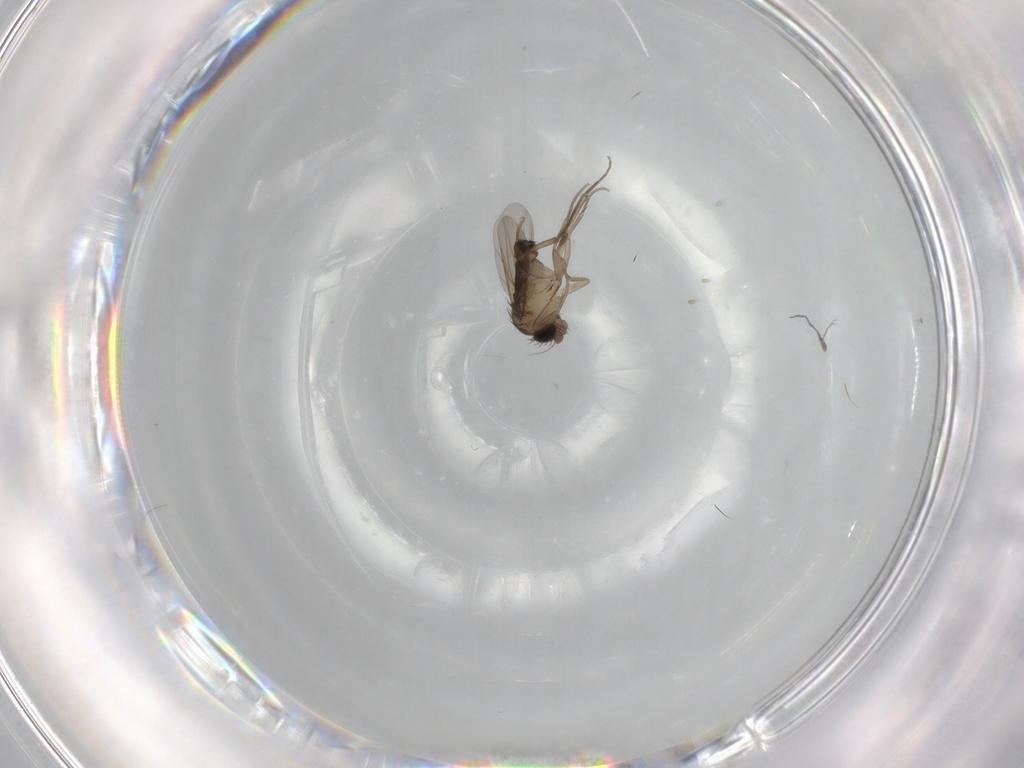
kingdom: Animalia
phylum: Arthropoda
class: Insecta
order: Diptera
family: Phoridae
